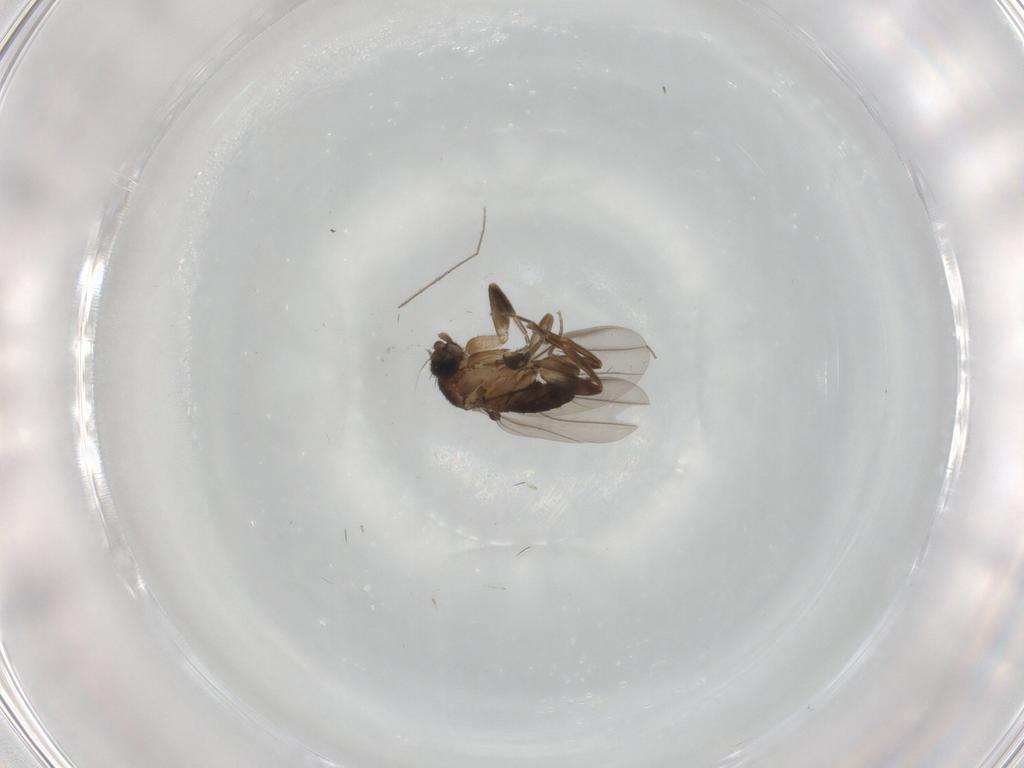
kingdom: Animalia
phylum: Arthropoda
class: Insecta
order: Diptera
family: Chironomidae
